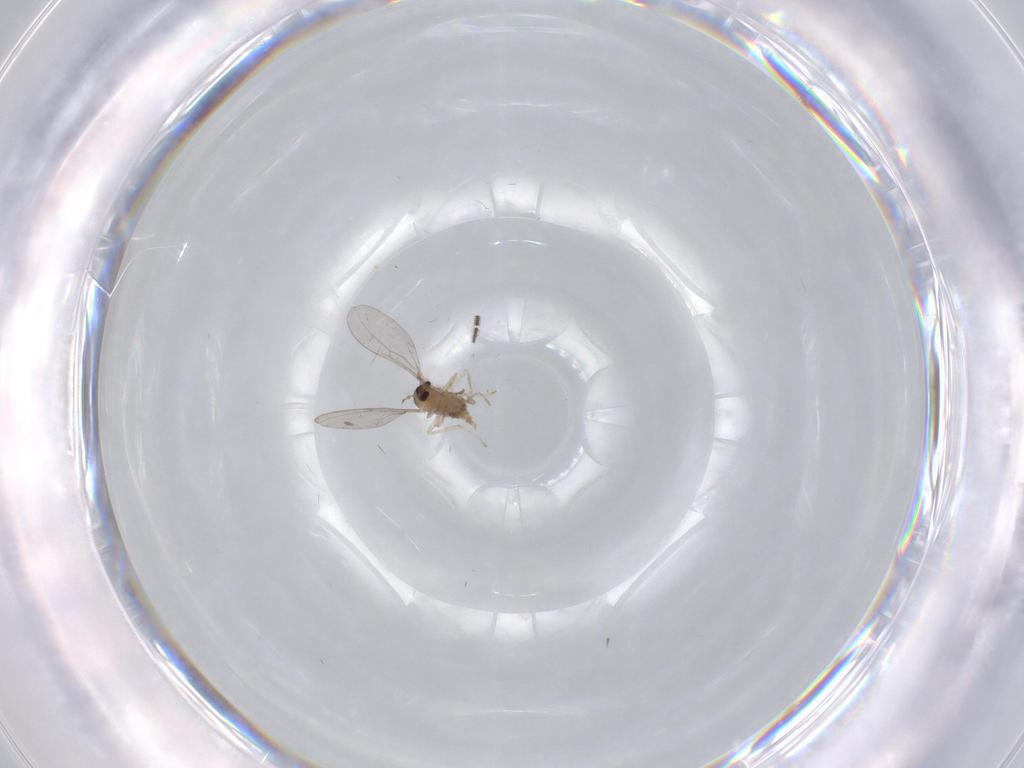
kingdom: Animalia
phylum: Arthropoda
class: Insecta
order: Diptera
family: Cecidomyiidae
